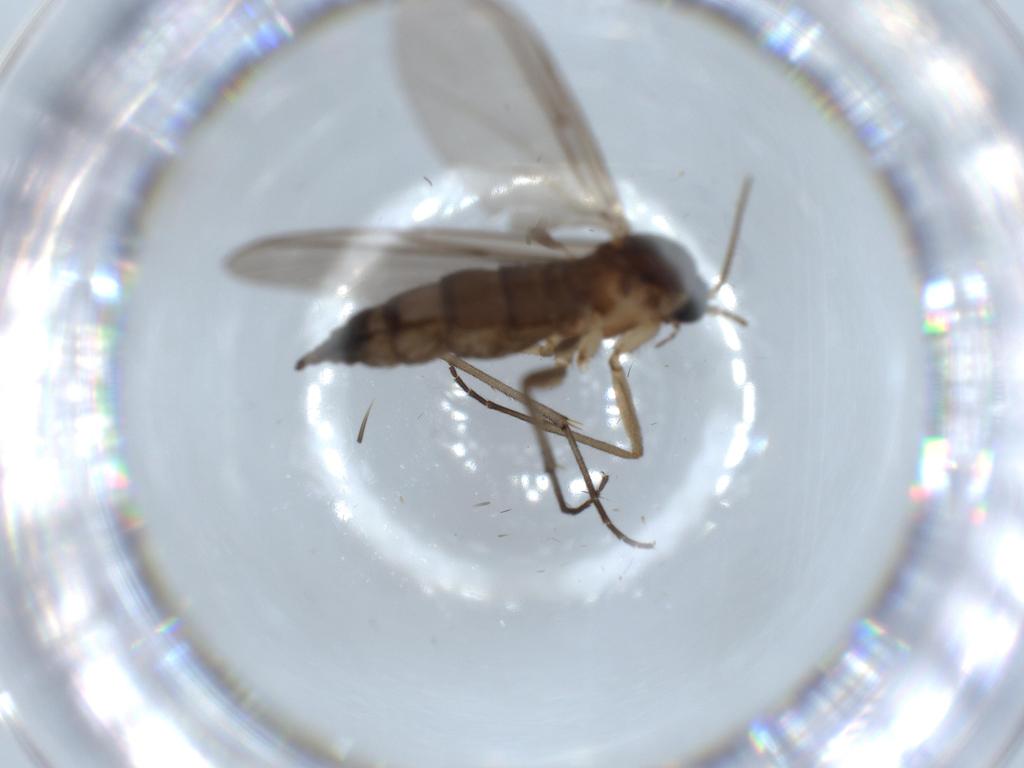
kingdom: Animalia
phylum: Arthropoda
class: Insecta
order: Diptera
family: Sciaridae
